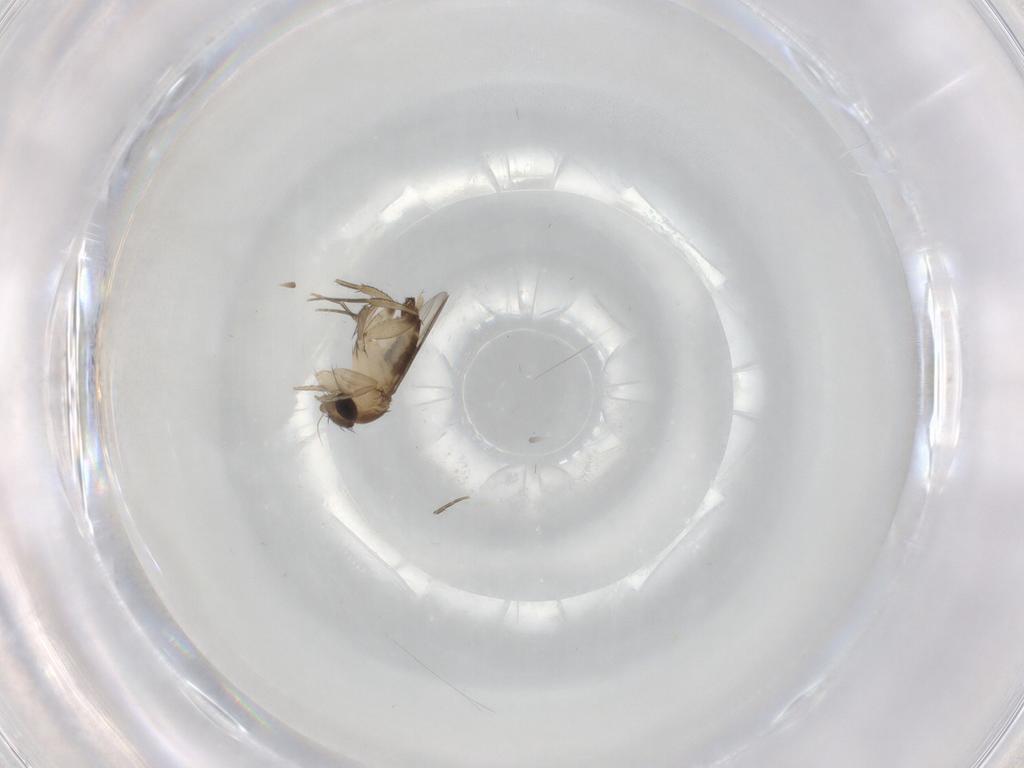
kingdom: Animalia
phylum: Arthropoda
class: Insecta
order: Diptera
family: Phoridae
